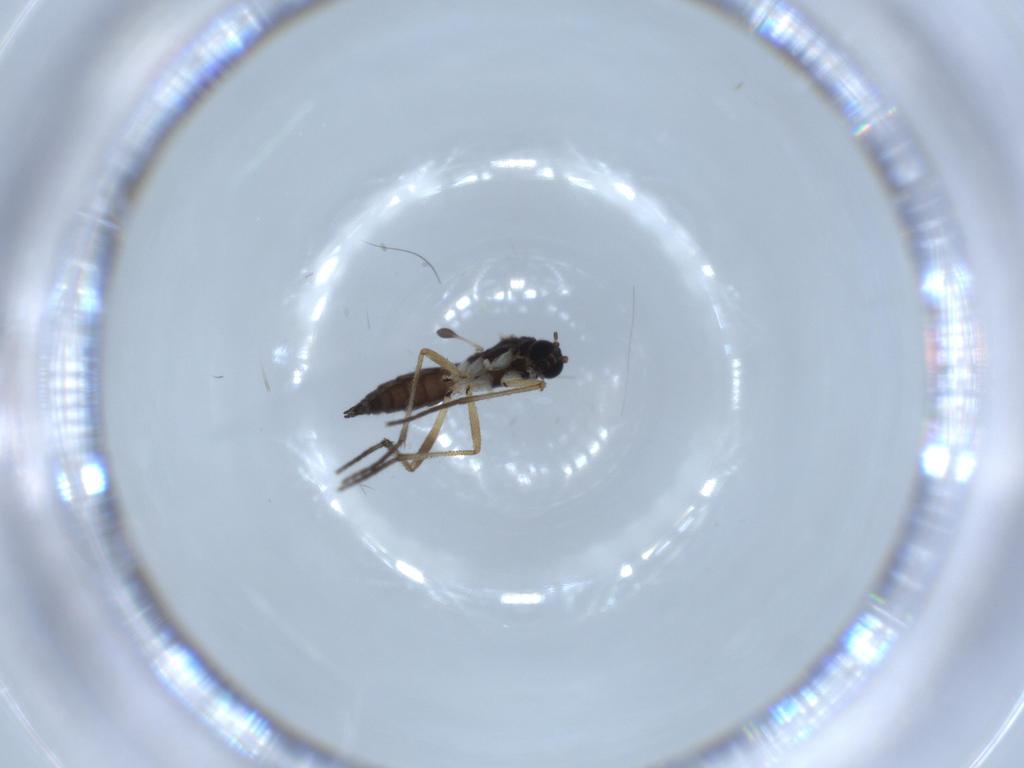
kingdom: Animalia
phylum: Arthropoda
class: Insecta
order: Diptera
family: Sciaridae
